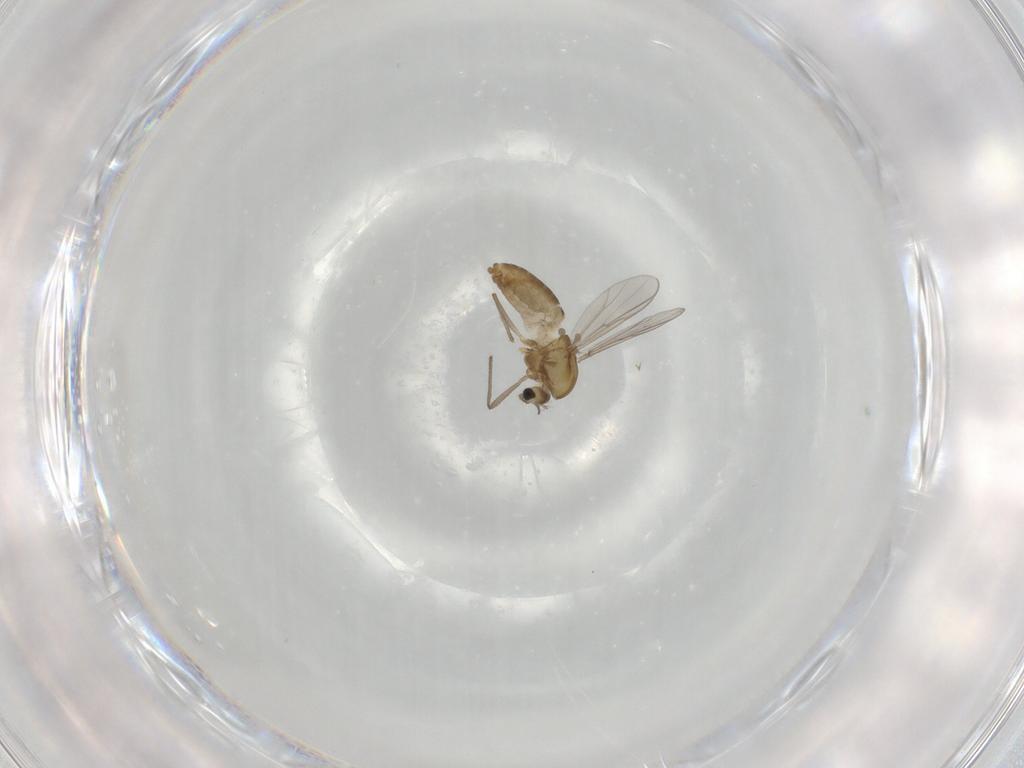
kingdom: Animalia
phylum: Arthropoda
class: Insecta
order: Diptera
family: Chironomidae
